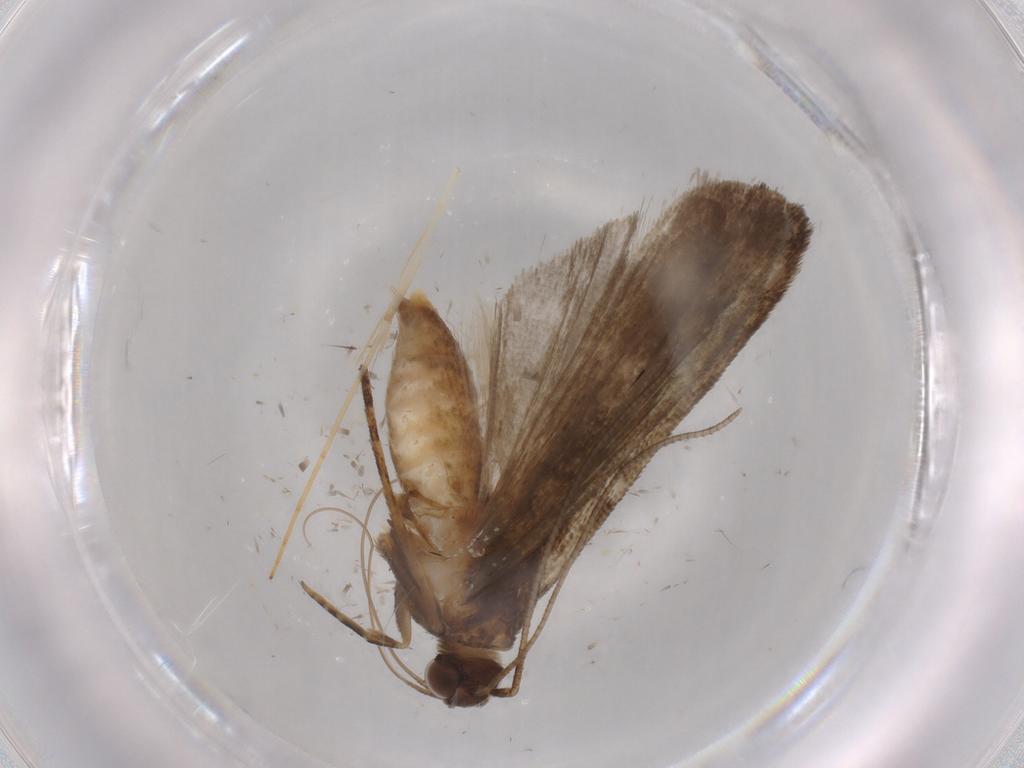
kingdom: Animalia
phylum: Arthropoda
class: Insecta
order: Lepidoptera
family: Noctuidae
